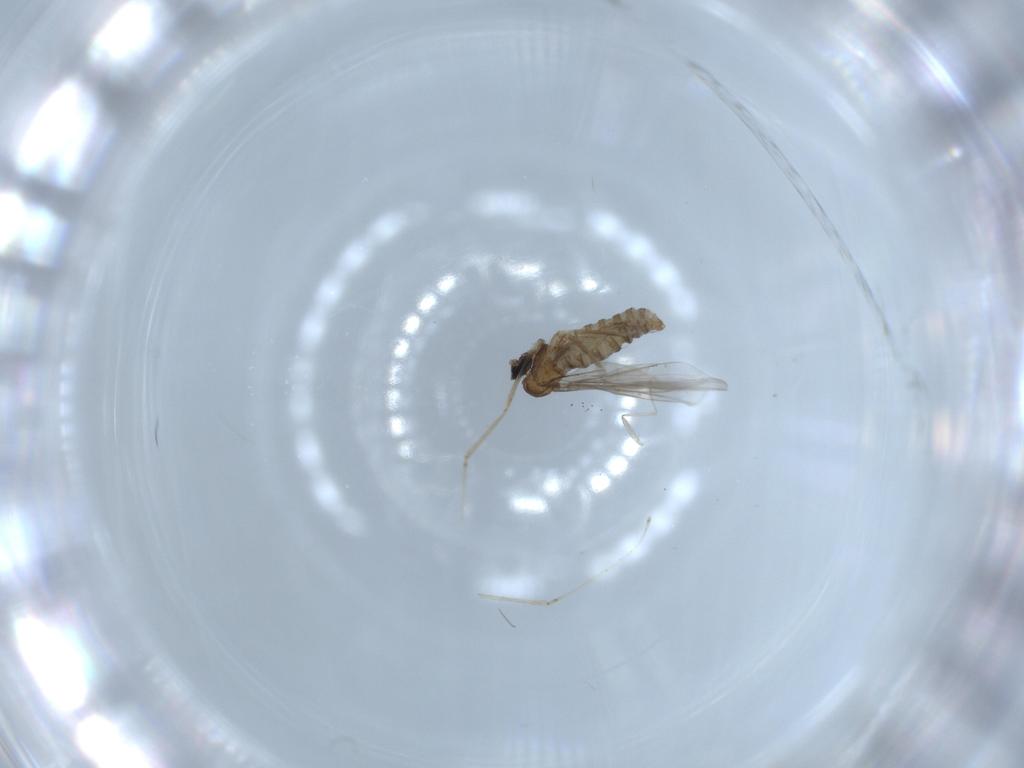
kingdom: Animalia
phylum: Arthropoda
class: Insecta
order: Diptera
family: Cecidomyiidae
